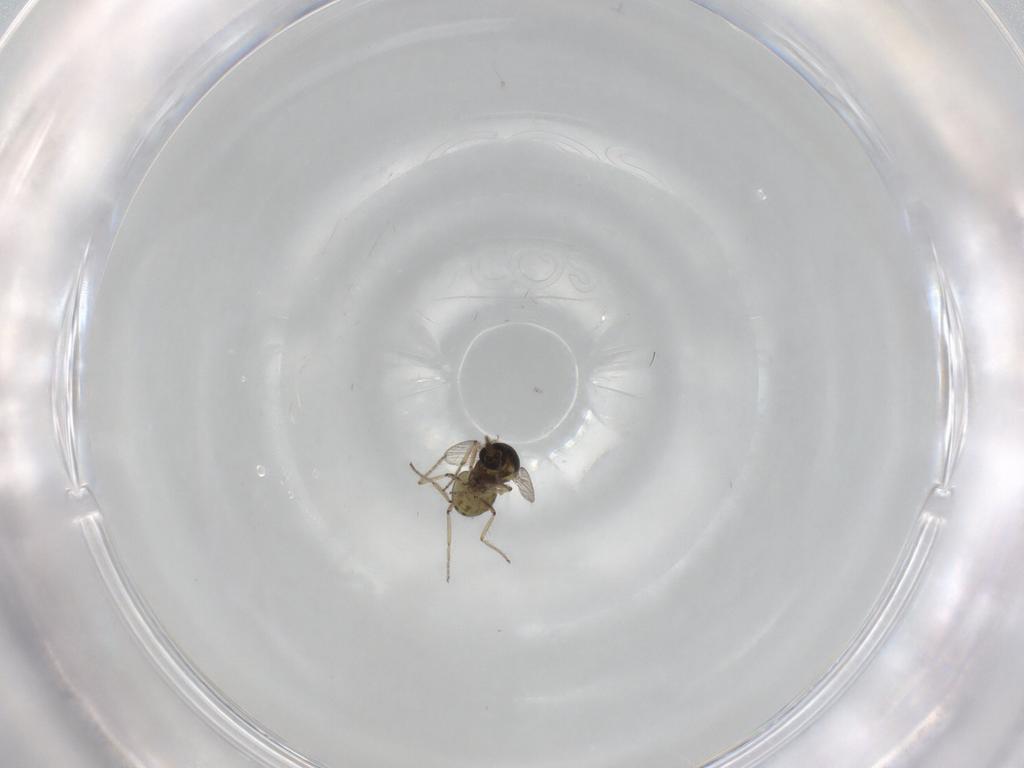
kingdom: Animalia
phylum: Arthropoda
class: Insecta
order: Diptera
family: Ceratopogonidae
